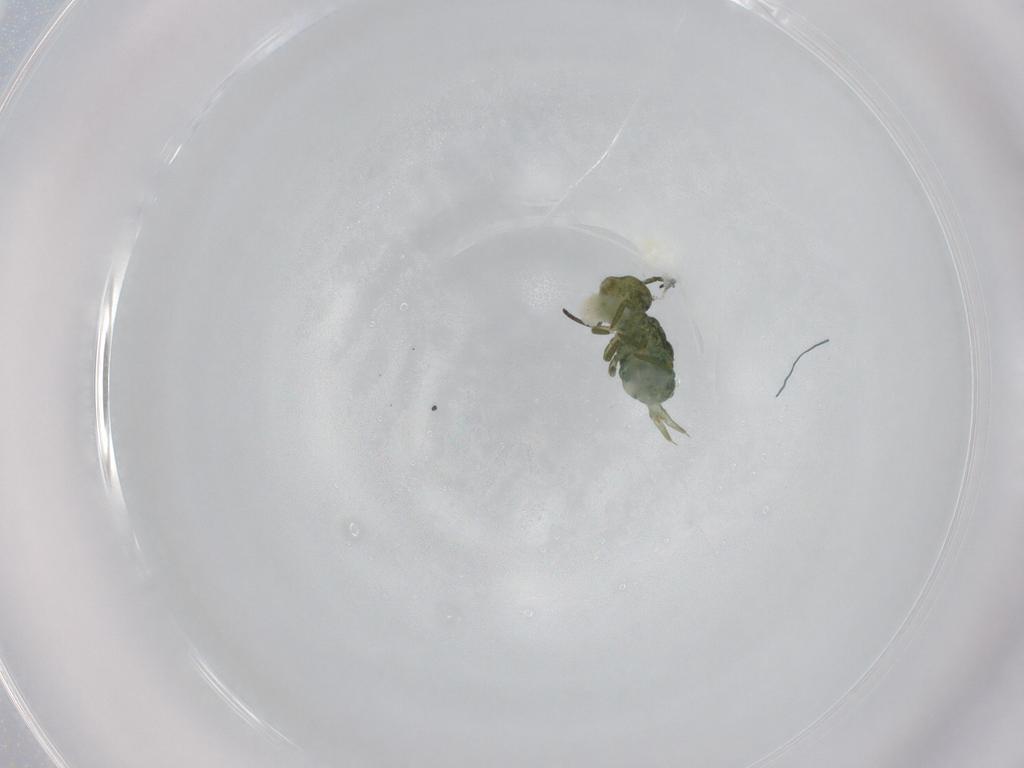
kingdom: Animalia
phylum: Arthropoda
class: Collembola
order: Symphypleona
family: Sminthuridae
